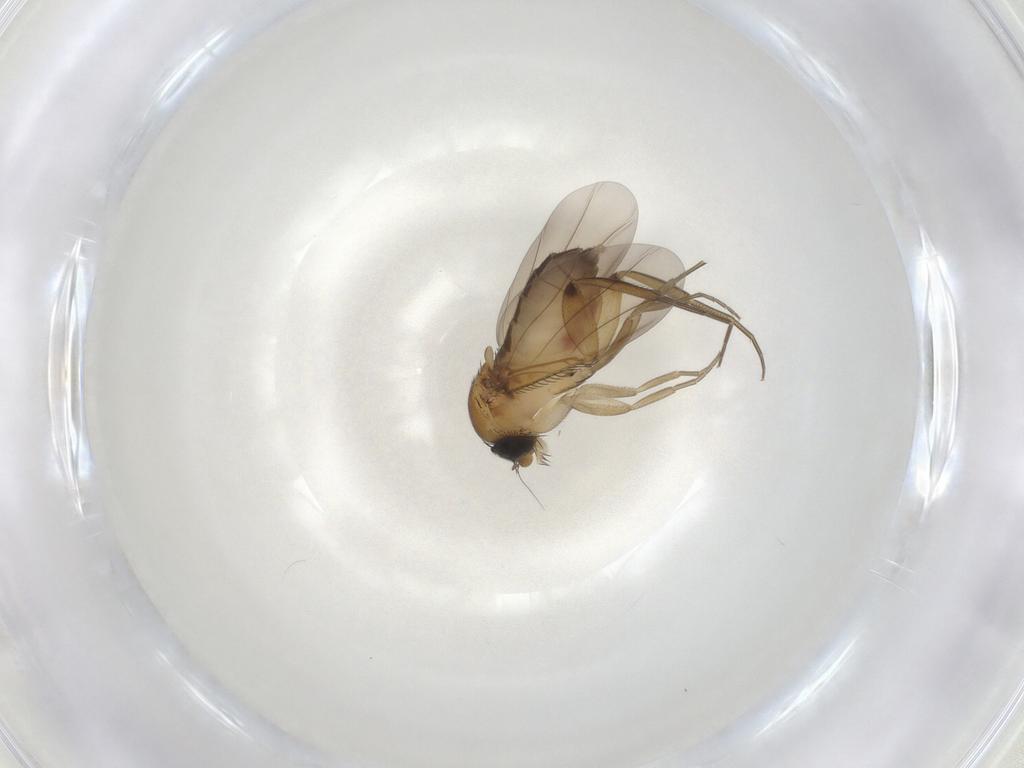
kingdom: Animalia
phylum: Arthropoda
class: Insecta
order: Diptera
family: Phoridae
